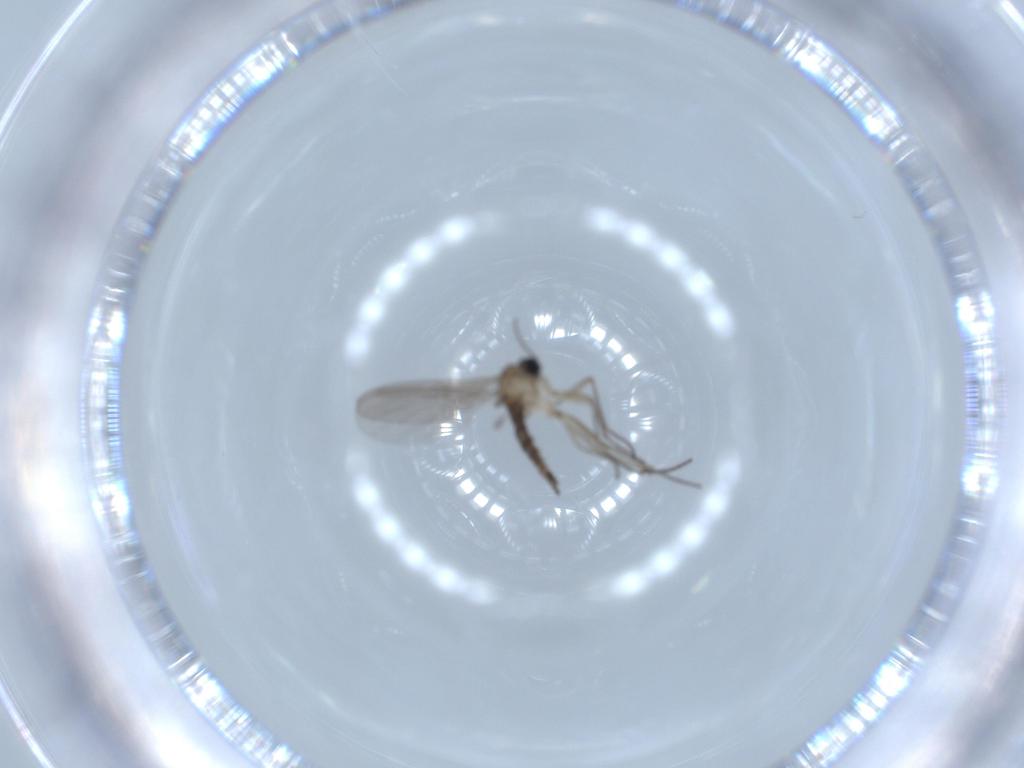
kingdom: Animalia
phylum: Arthropoda
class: Insecta
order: Diptera
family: Sciaridae
